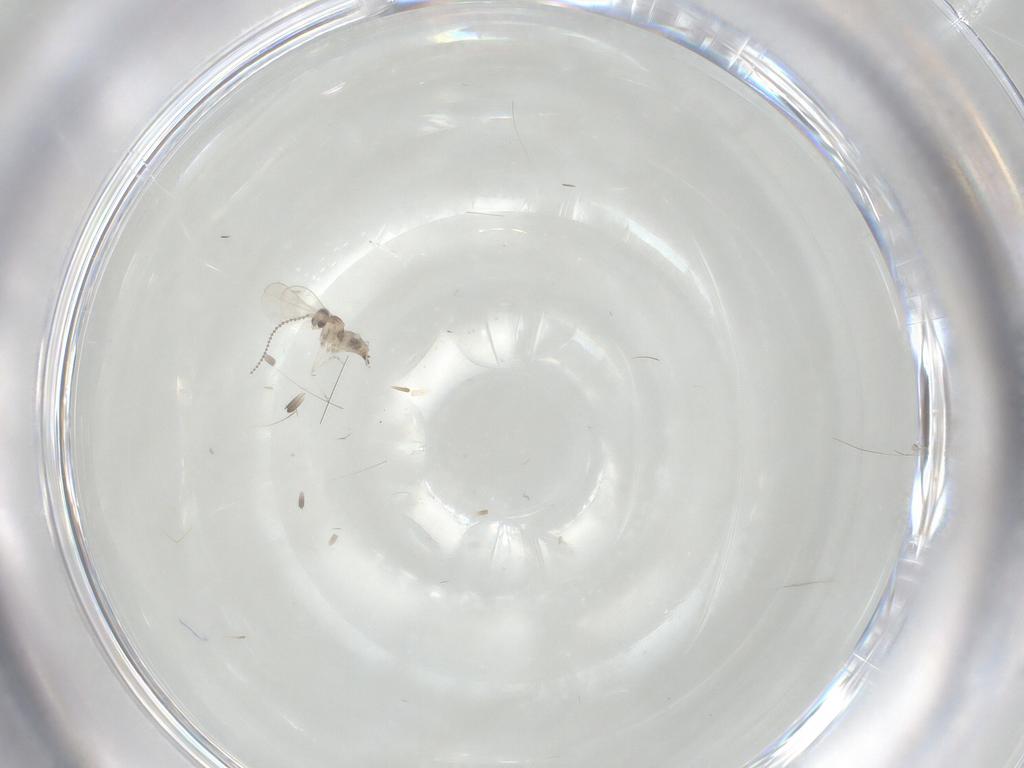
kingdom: Animalia
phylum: Arthropoda
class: Insecta
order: Diptera
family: Cecidomyiidae
